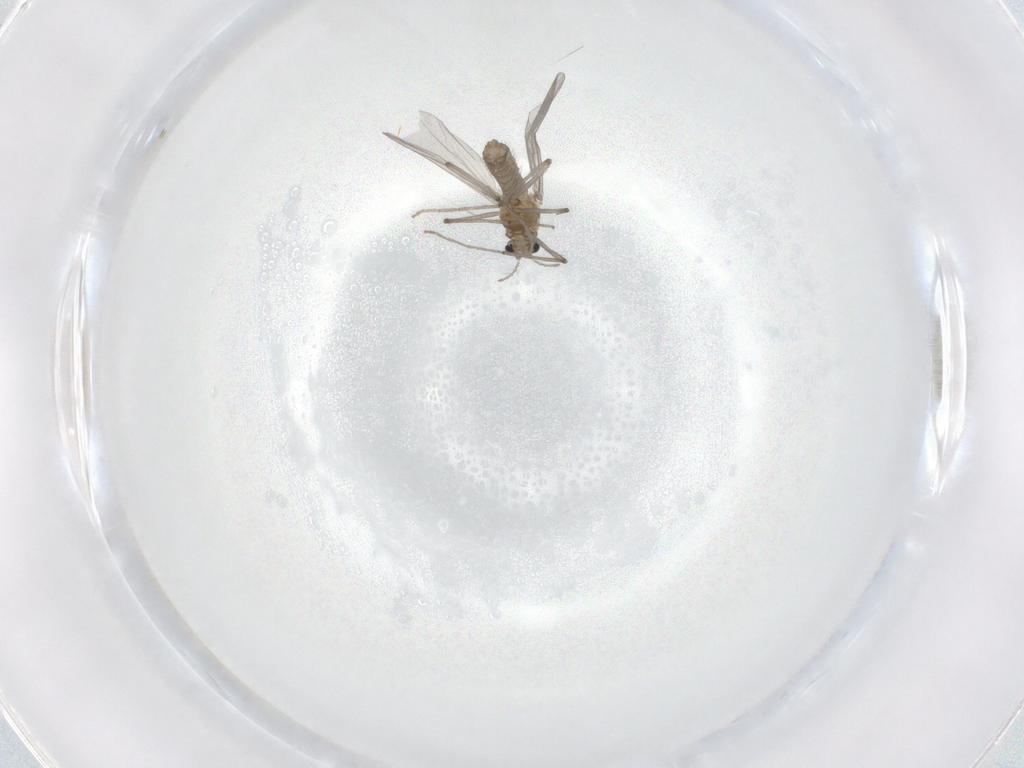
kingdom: Animalia
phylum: Arthropoda
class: Insecta
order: Diptera
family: Chironomidae
